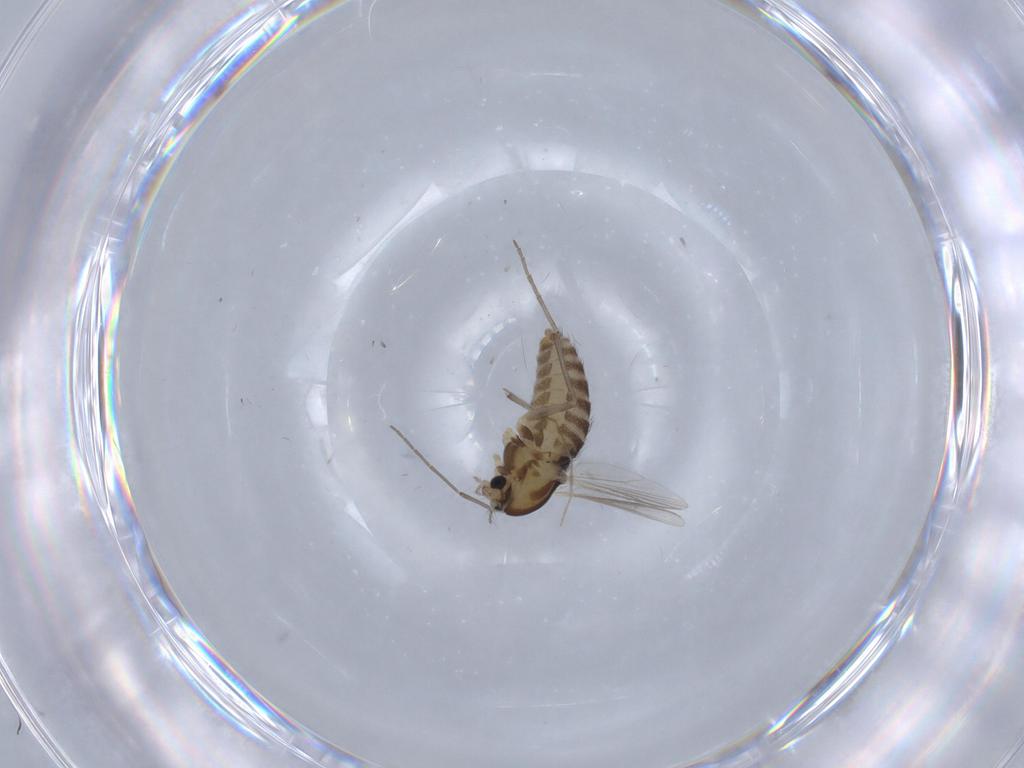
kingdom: Animalia
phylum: Arthropoda
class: Insecta
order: Diptera
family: Chironomidae
